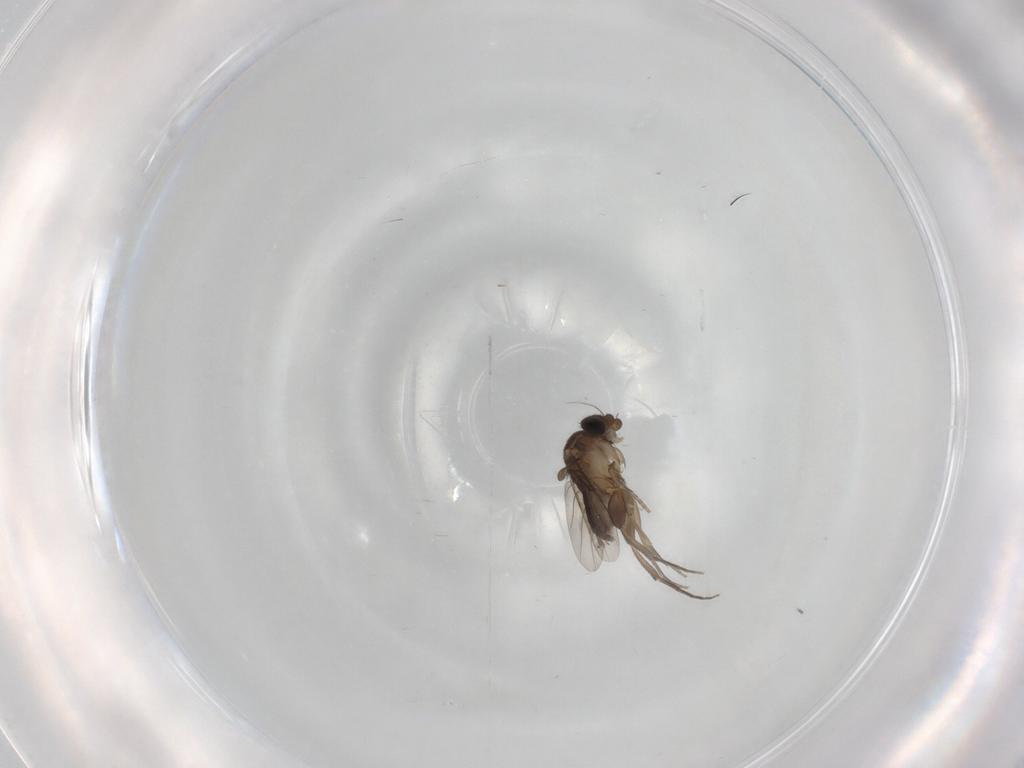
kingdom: Animalia
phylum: Arthropoda
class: Insecta
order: Diptera
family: Phoridae
